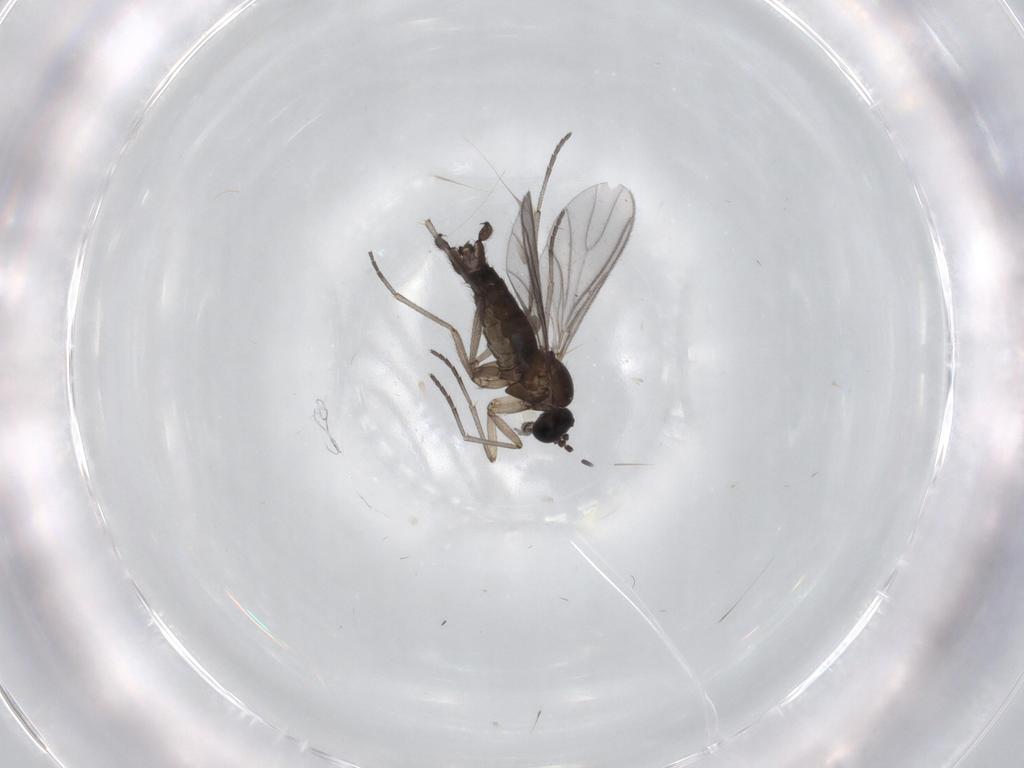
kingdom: Animalia
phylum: Arthropoda
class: Insecta
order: Diptera
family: Sciaridae
